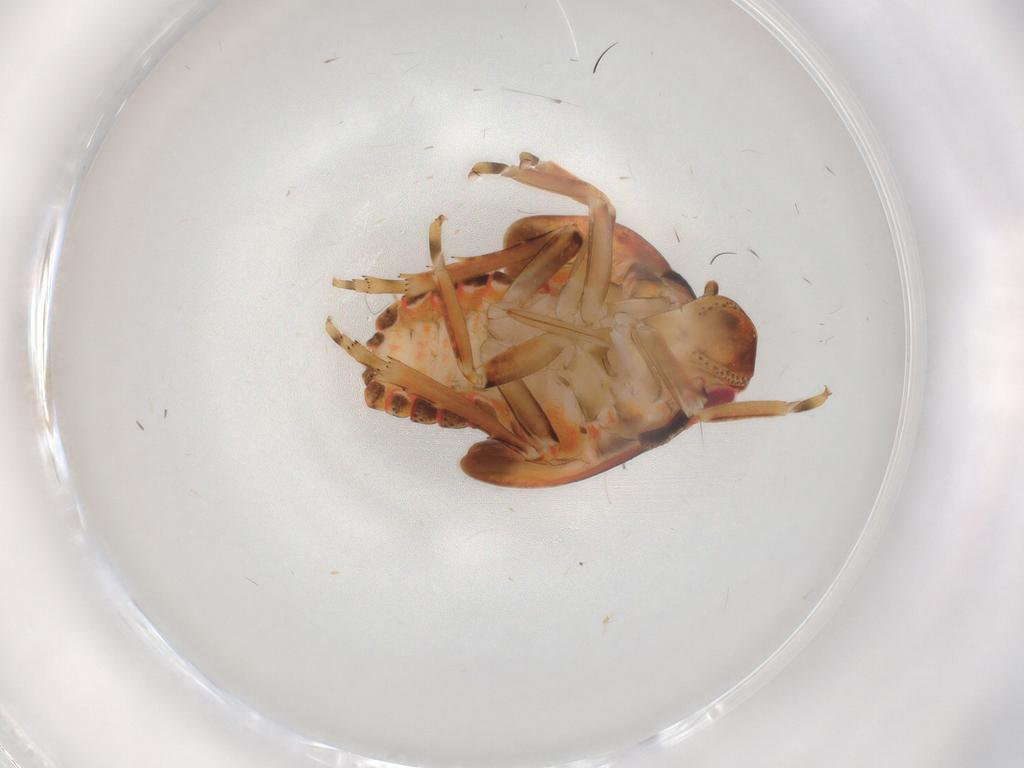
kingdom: Animalia
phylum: Arthropoda
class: Insecta
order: Hemiptera
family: Flatidae
